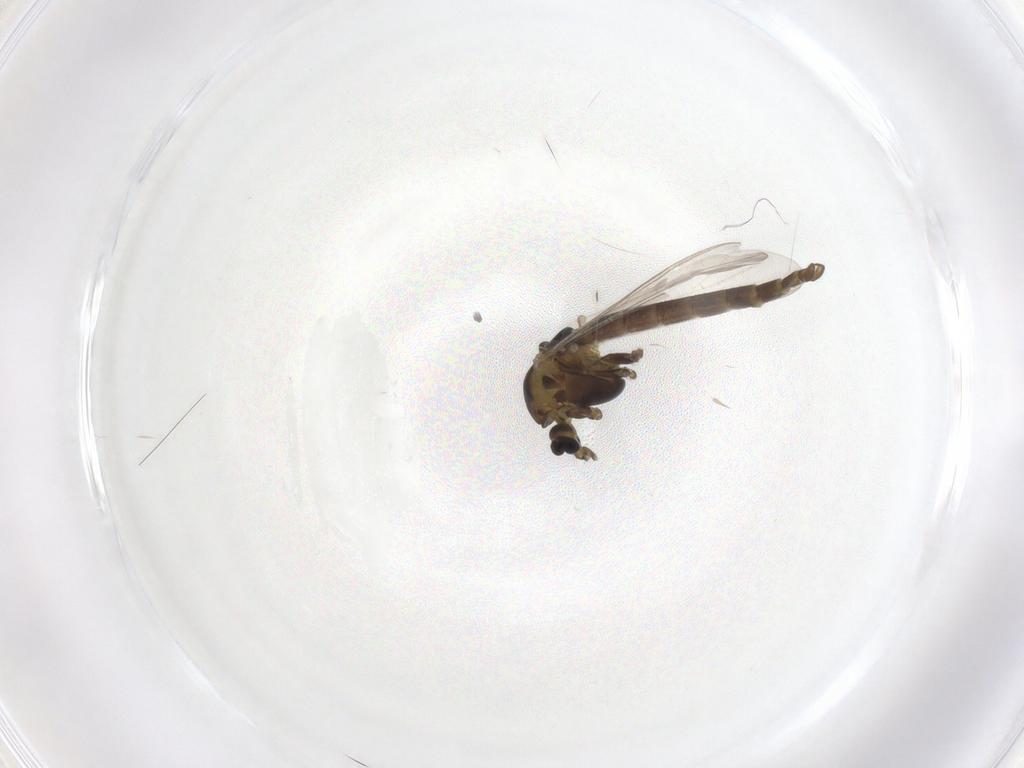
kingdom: Animalia
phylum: Arthropoda
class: Insecta
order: Diptera
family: Chironomidae
